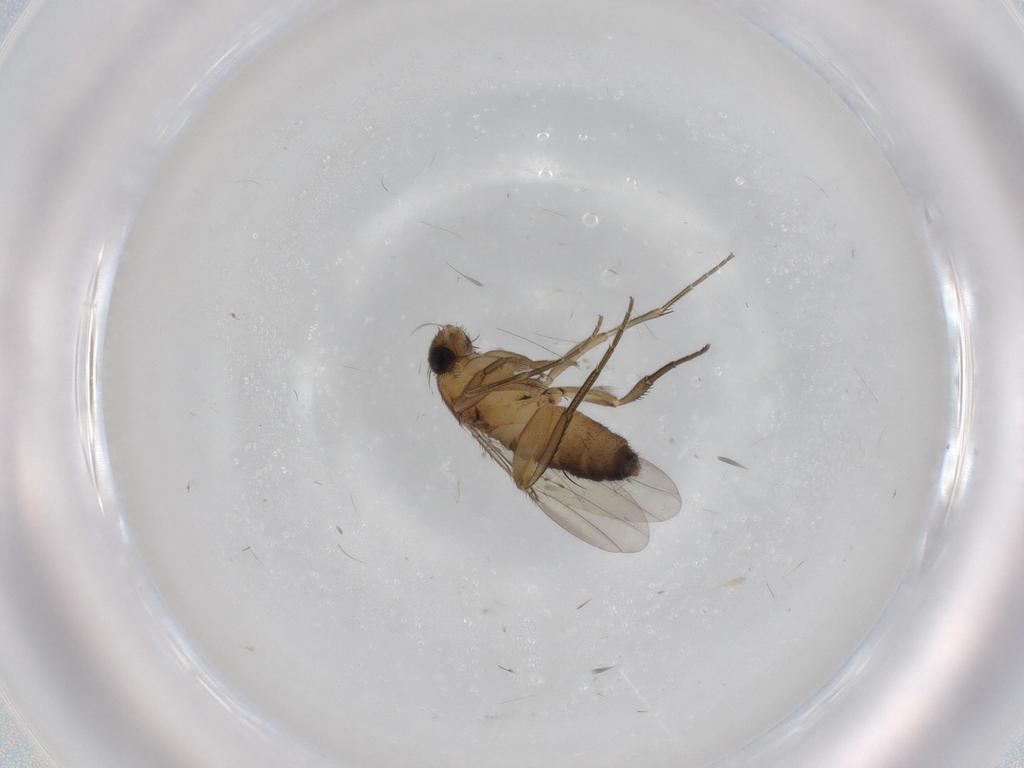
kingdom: Animalia
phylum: Arthropoda
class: Insecta
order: Diptera
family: Phoridae
